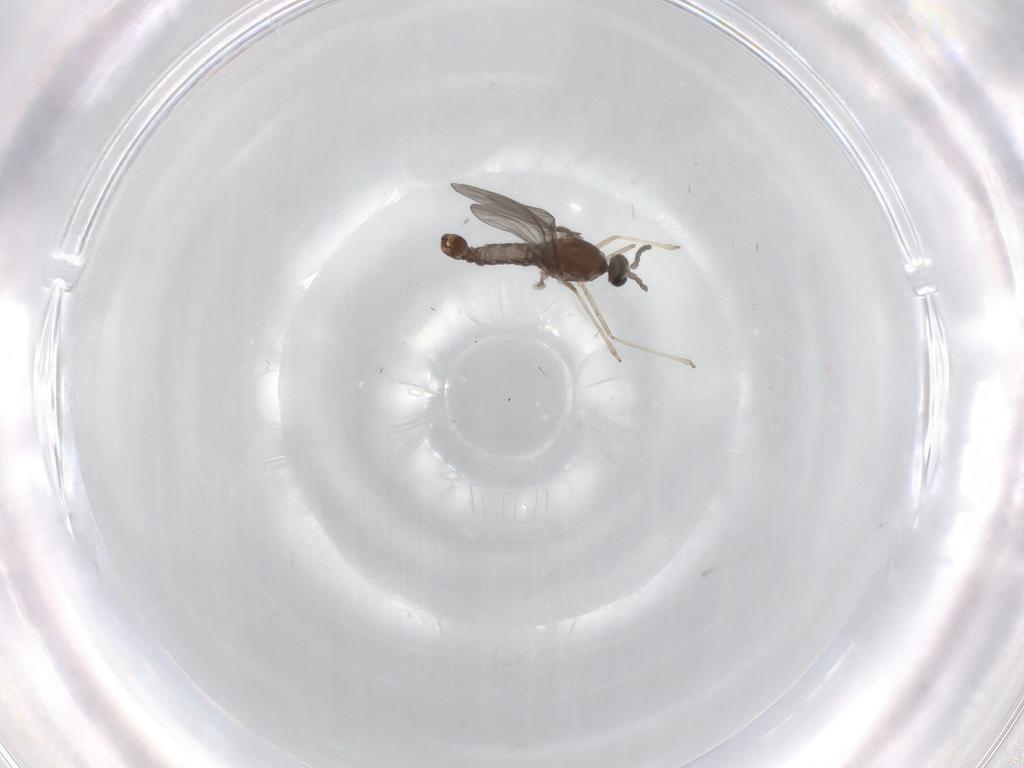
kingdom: Animalia
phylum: Arthropoda
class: Insecta
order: Diptera
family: Cecidomyiidae
